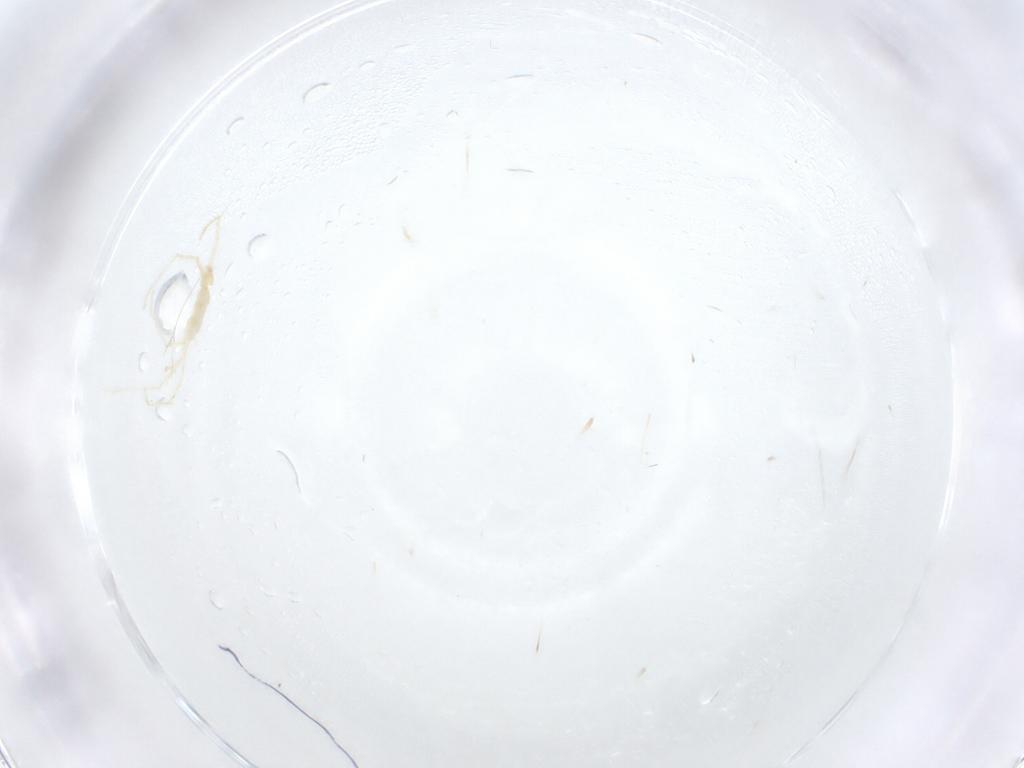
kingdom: Animalia
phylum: Arthropoda
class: Arachnida
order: Trombidiformes
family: Erythraeidae
